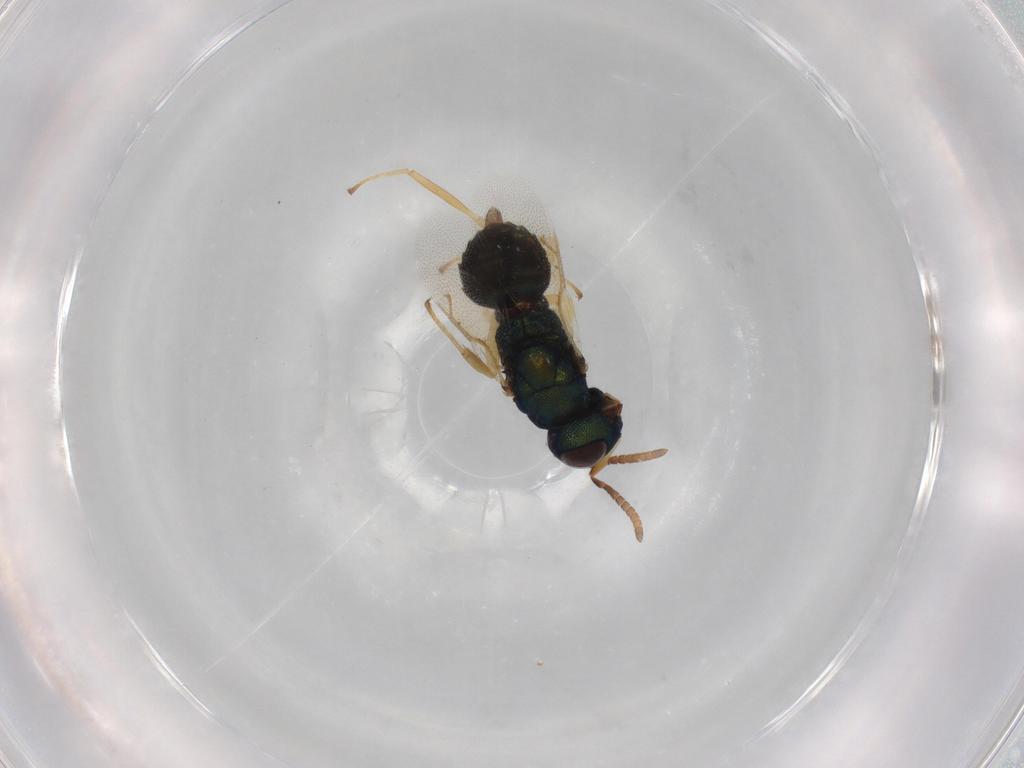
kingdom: Animalia
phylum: Arthropoda
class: Insecta
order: Hymenoptera
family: Pteromalidae
